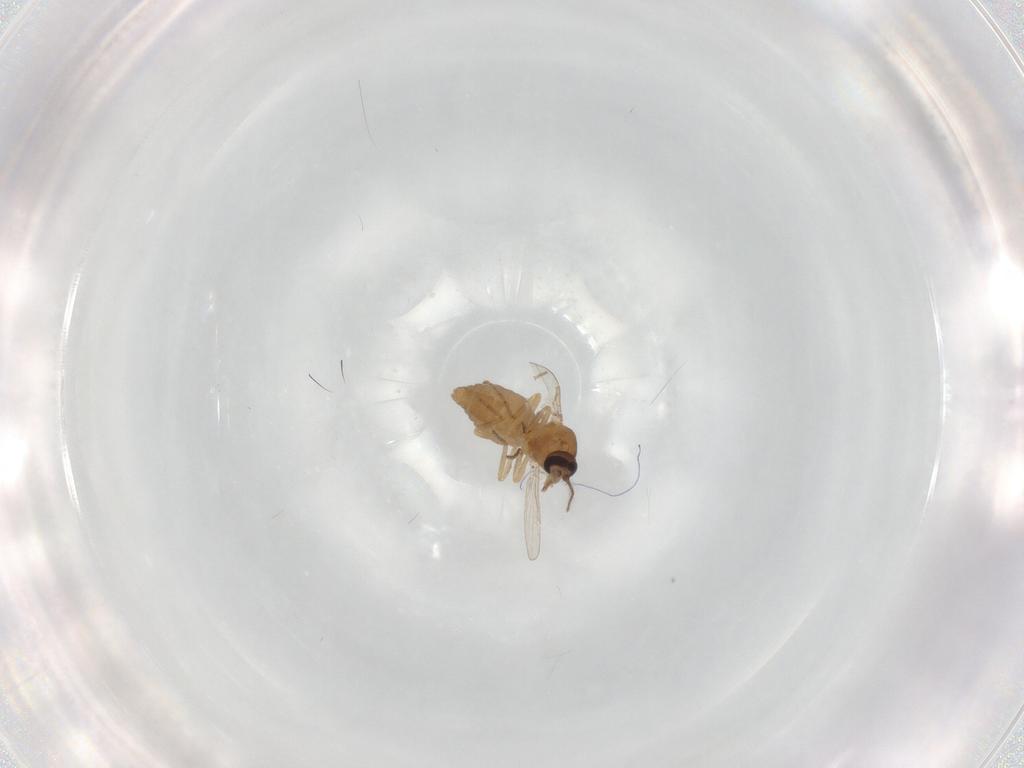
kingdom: Animalia
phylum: Arthropoda
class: Insecta
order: Diptera
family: Ceratopogonidae
